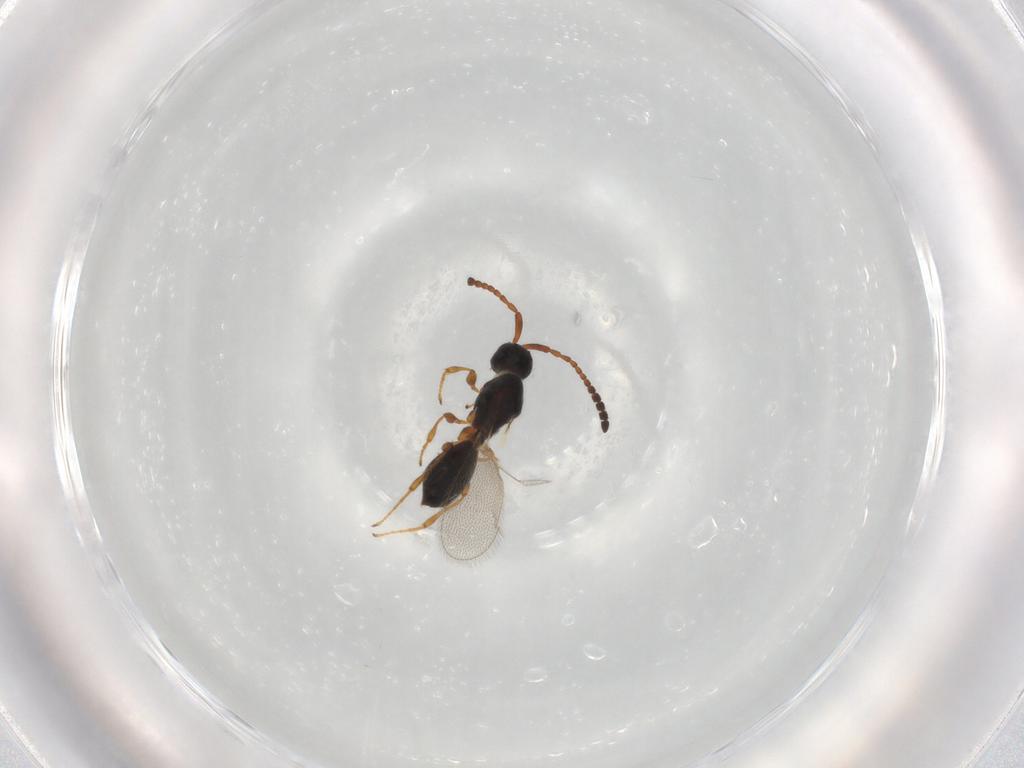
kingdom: Animalia
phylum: Arthropoda
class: Insecta
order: Hymenoptera
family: Diapriidae
